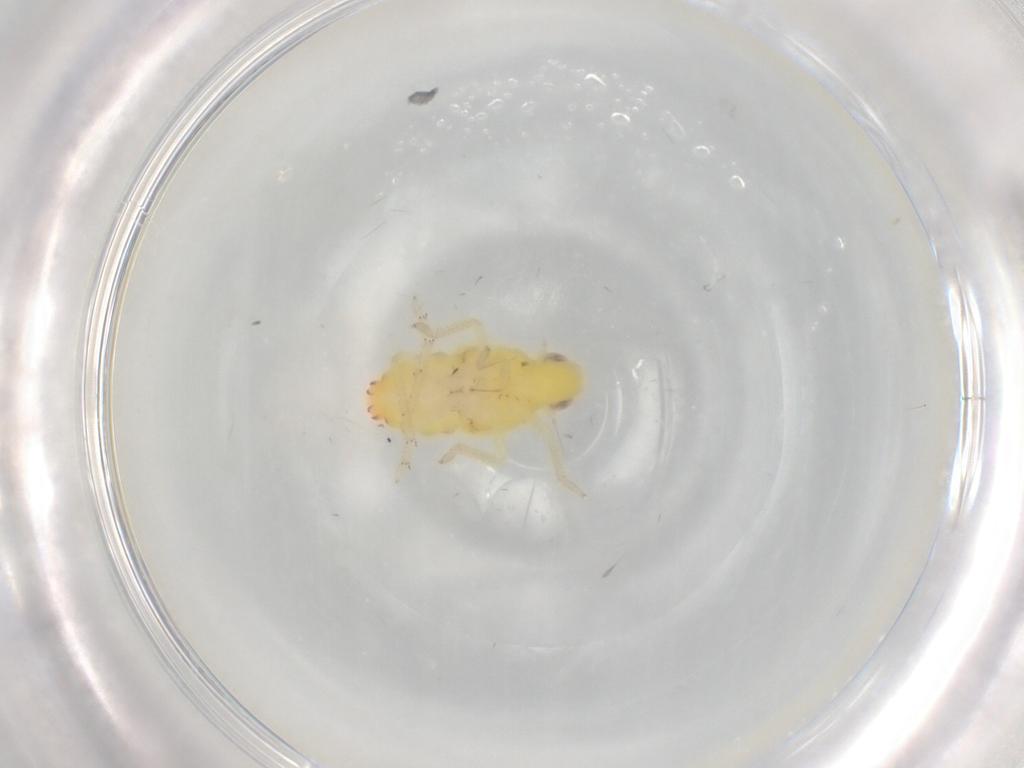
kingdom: Animalia
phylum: Arthropoda
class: Insecta
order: Hemiptera
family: Tropiduchidae
